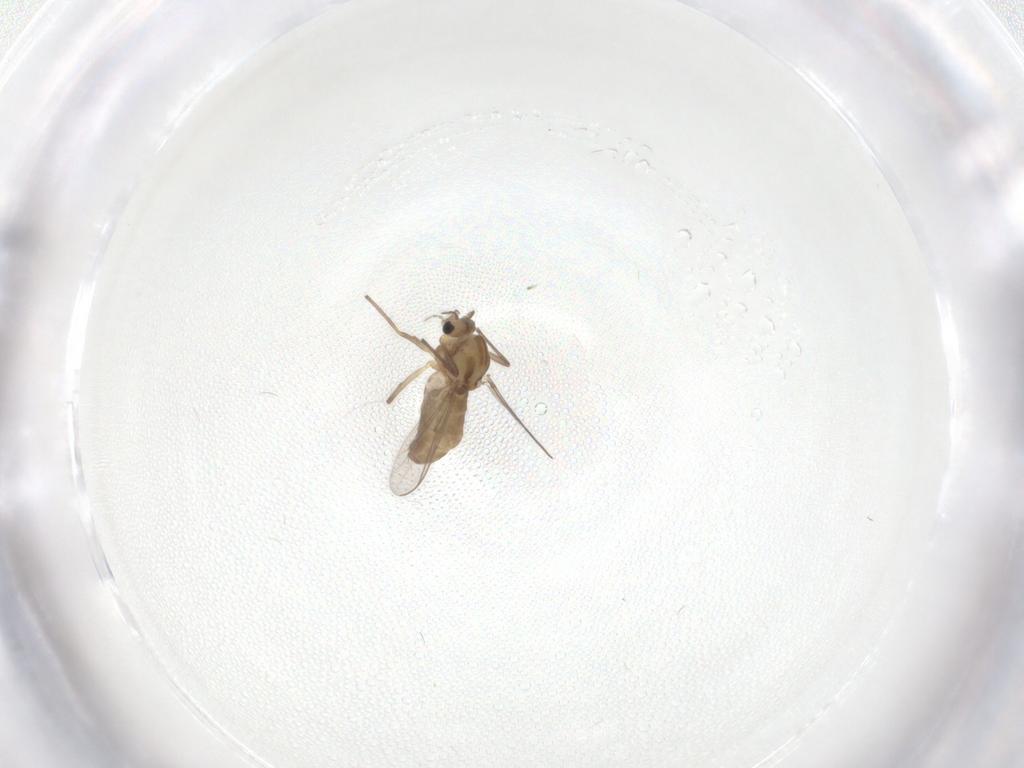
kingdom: Animalia
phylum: Arthropoda
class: Insecta
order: Diptera
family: Chironomidae
